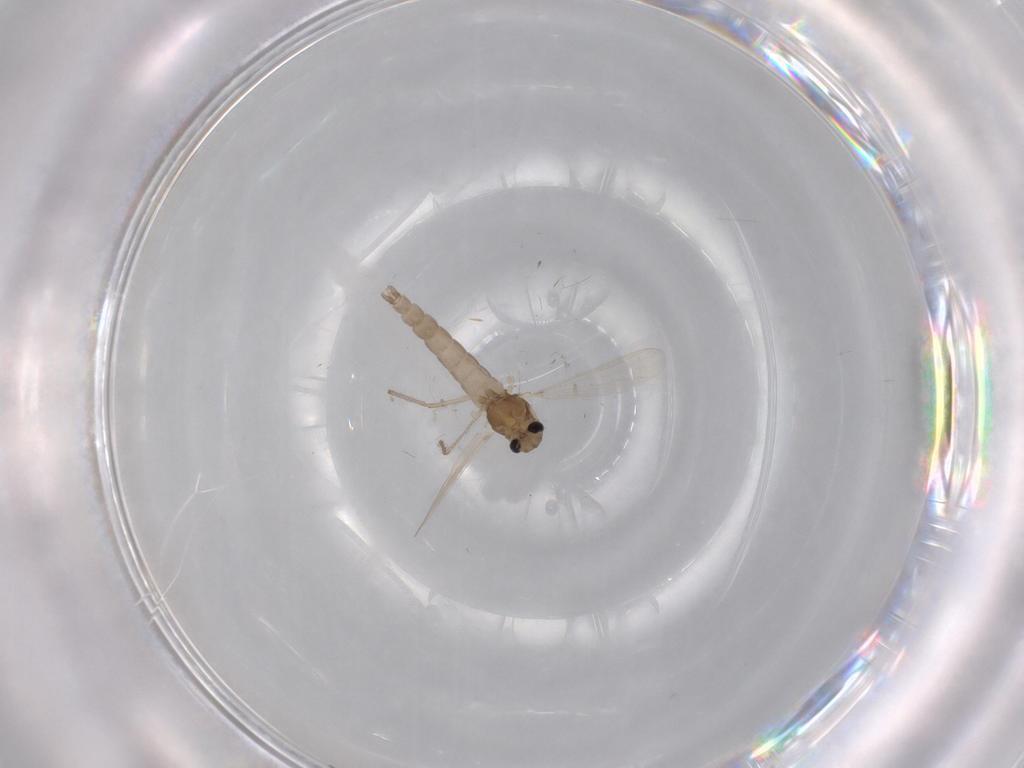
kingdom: Animalia
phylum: Arthropoda
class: Insecta
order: Diptera
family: Chironomidae
